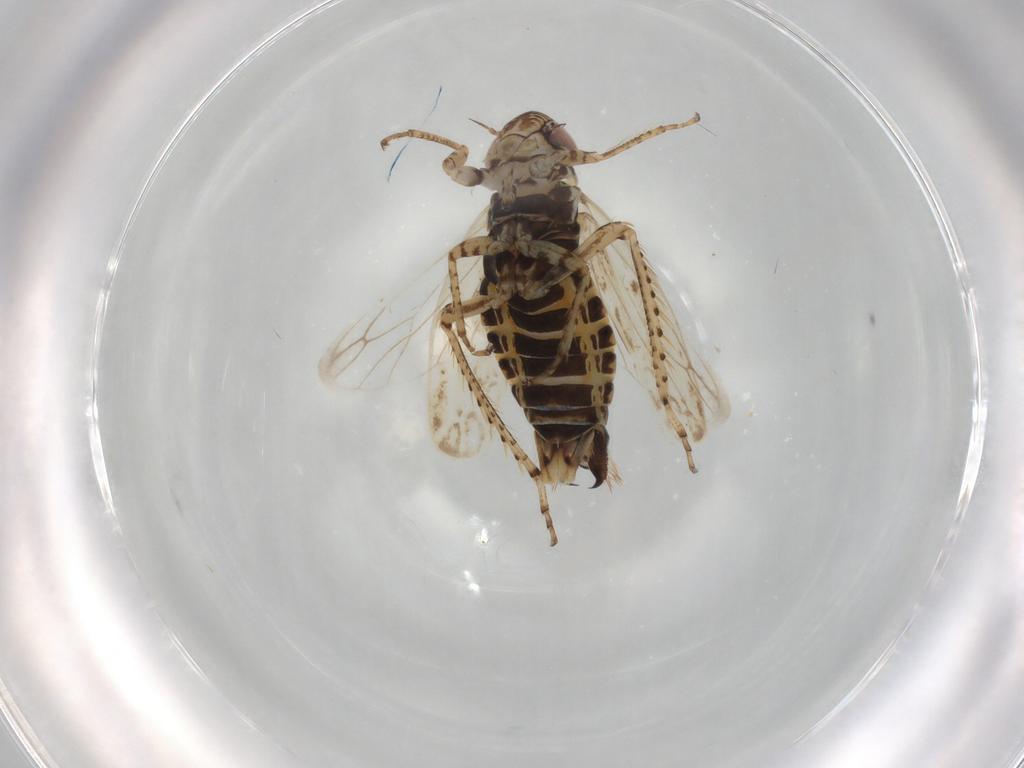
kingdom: Animalia
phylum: Arthropoda
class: Insecta
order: Hemiptera
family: Cicadellidae
